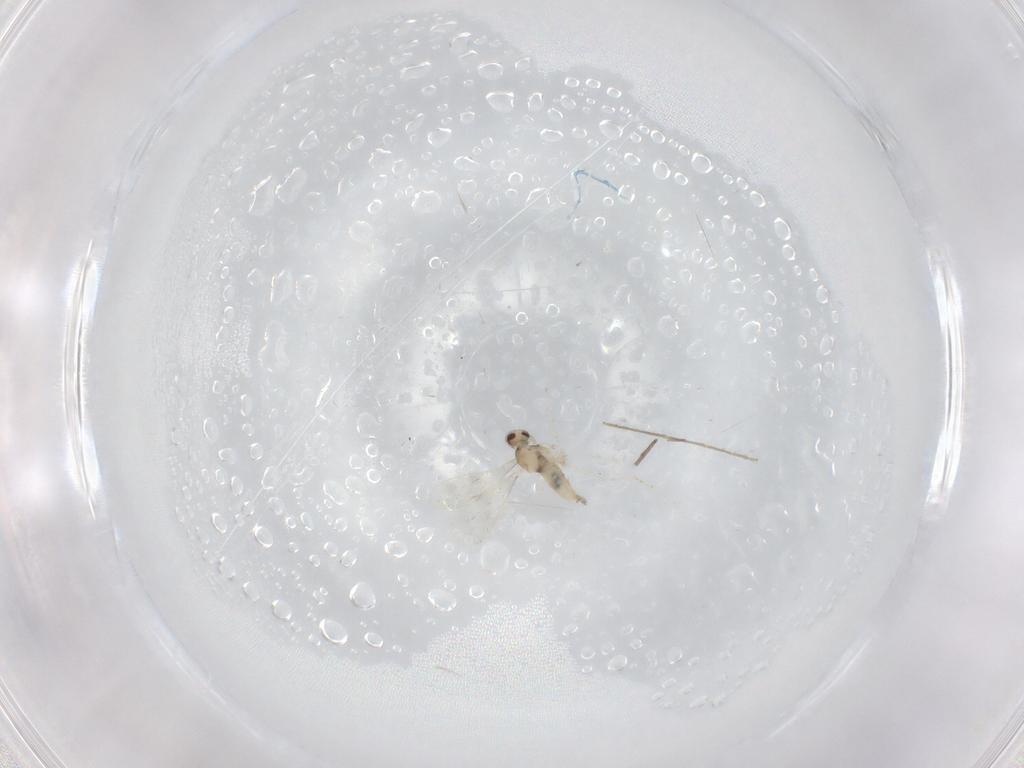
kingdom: Animalia
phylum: Arthropoda
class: Insecta
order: Diptera
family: Chironomidae
